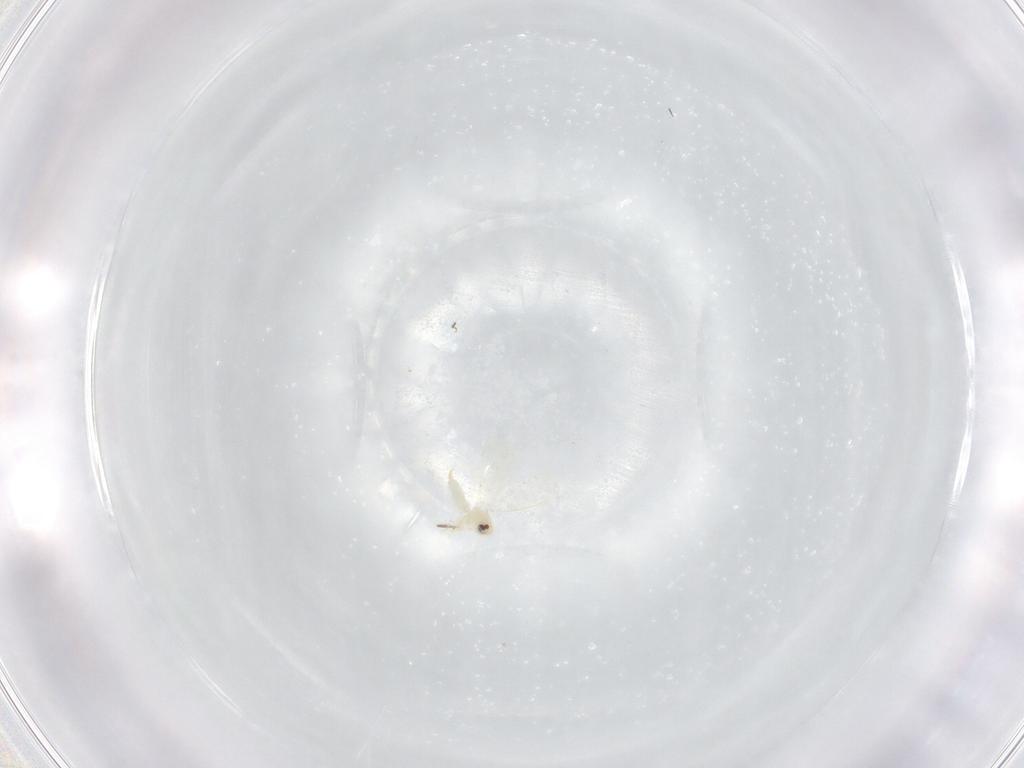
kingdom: Animalia
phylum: Arthropoda
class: Insecta
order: Hemiptera
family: Aleyrodidae
